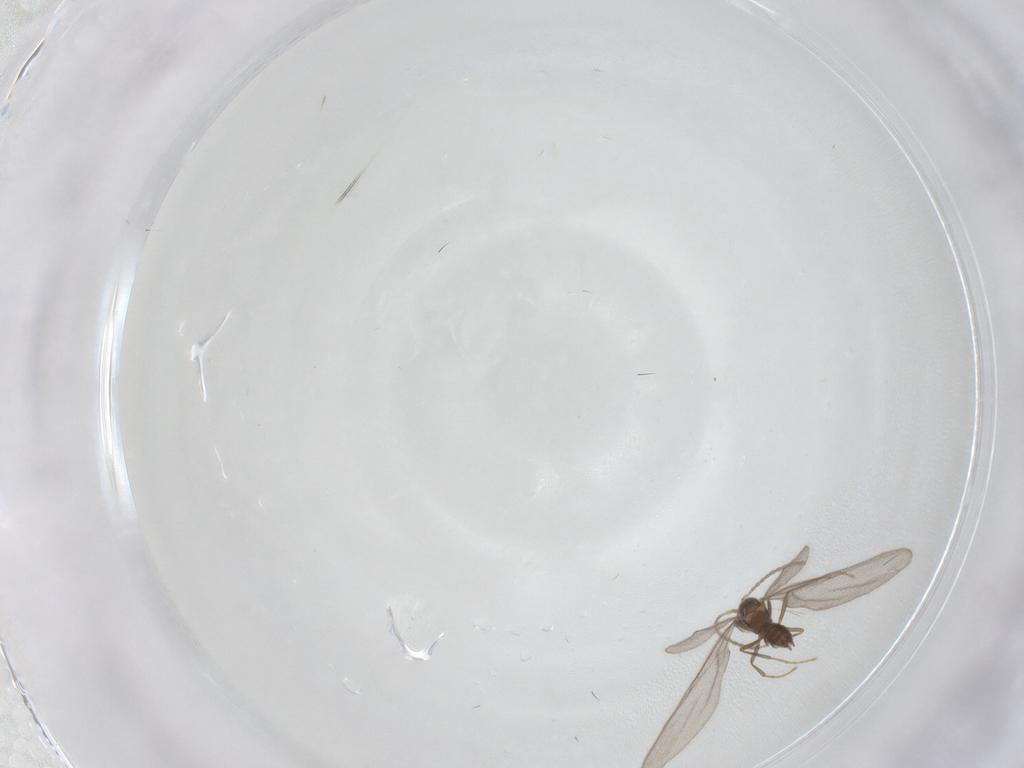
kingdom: Animalia
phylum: Arthropoda
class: Insecta
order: Hymenoptera
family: Formicidae
